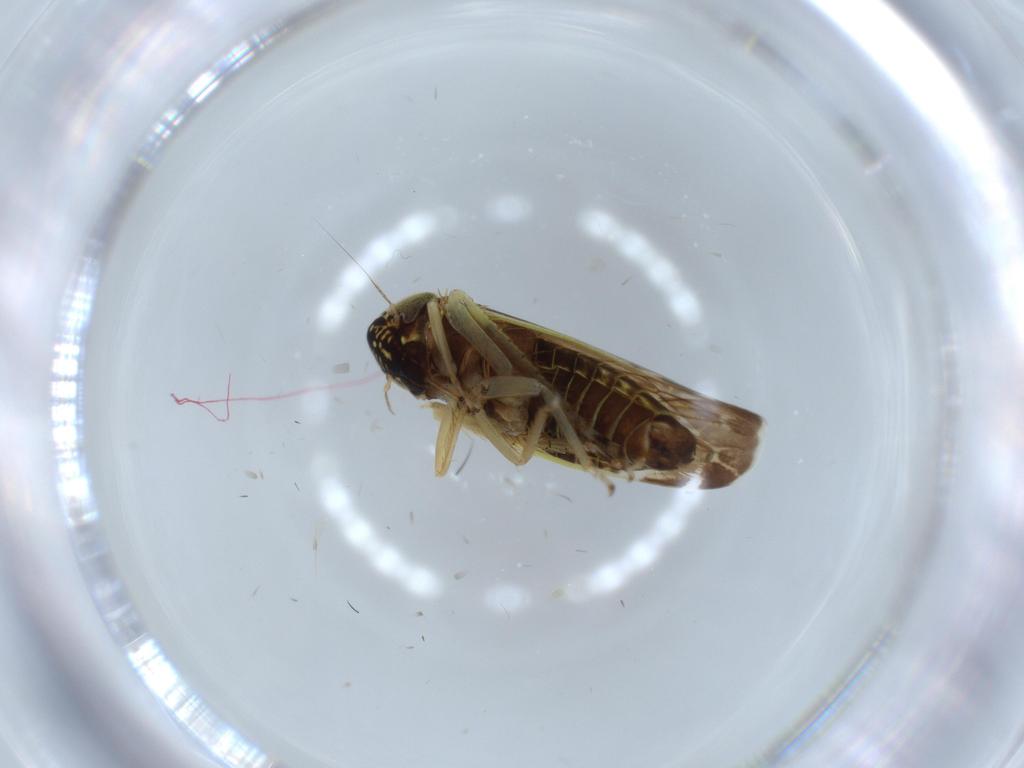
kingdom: Animalia
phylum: Arthropoda
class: Insecta
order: Hemiptera
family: Cicadellidae
